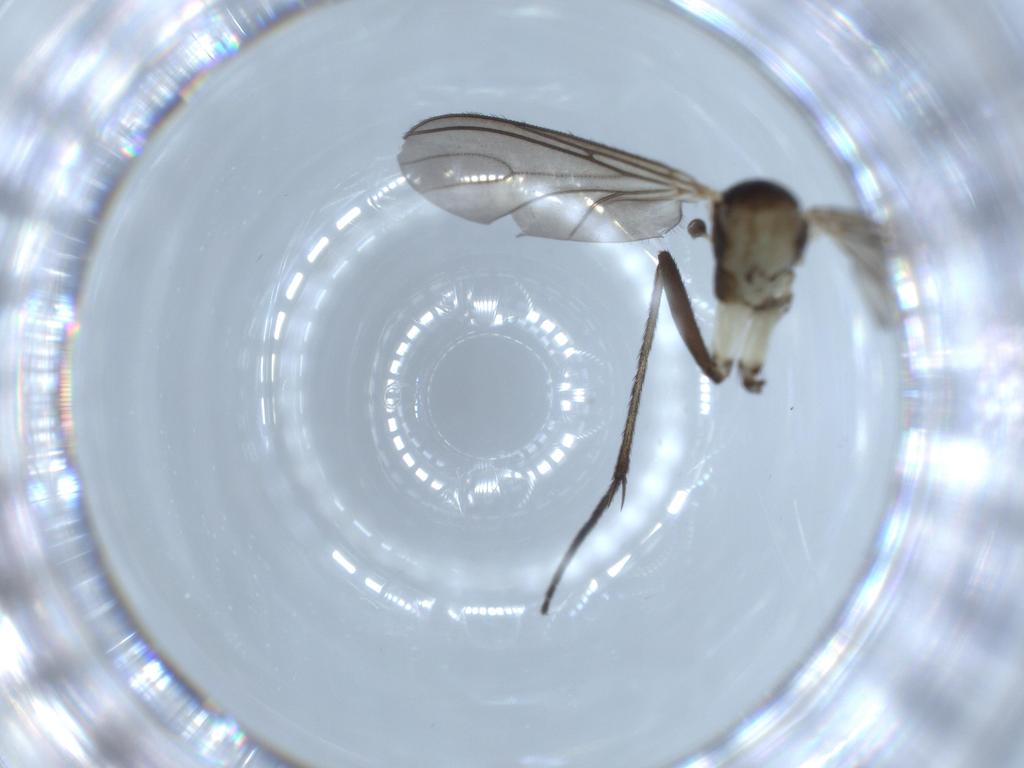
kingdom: Animalia
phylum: Arthropoda
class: Insecta
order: Diptera
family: Sciaridae
